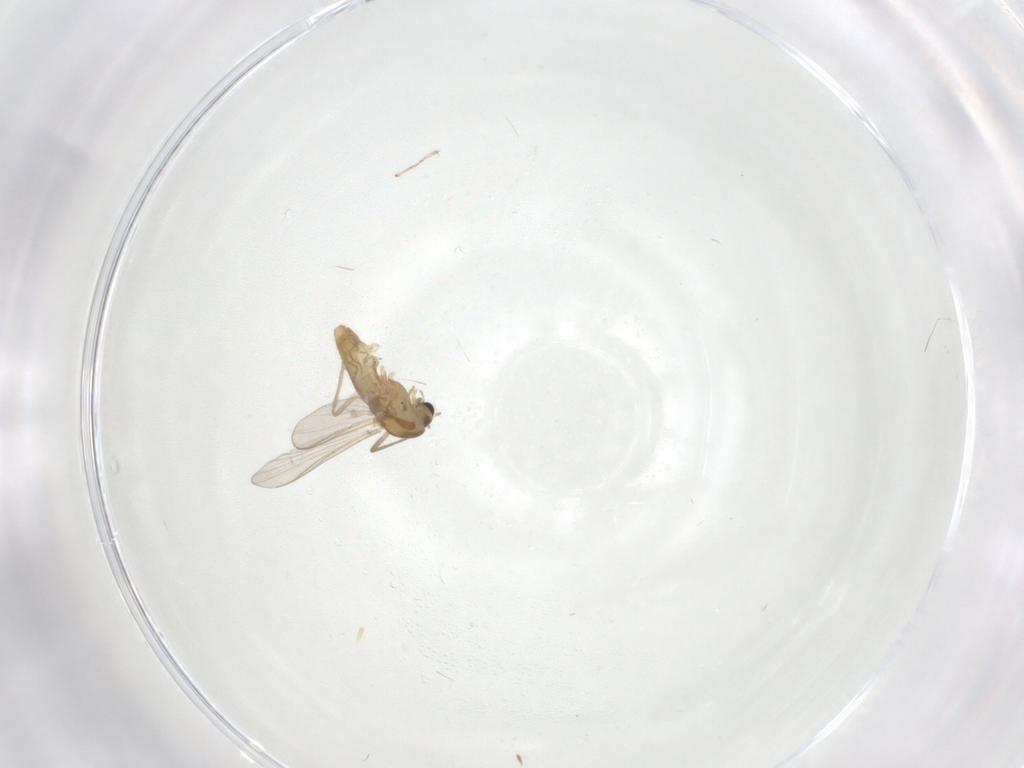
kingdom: Animalia
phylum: Arthropoda
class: Insecta
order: Diptera
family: Chironomidae
